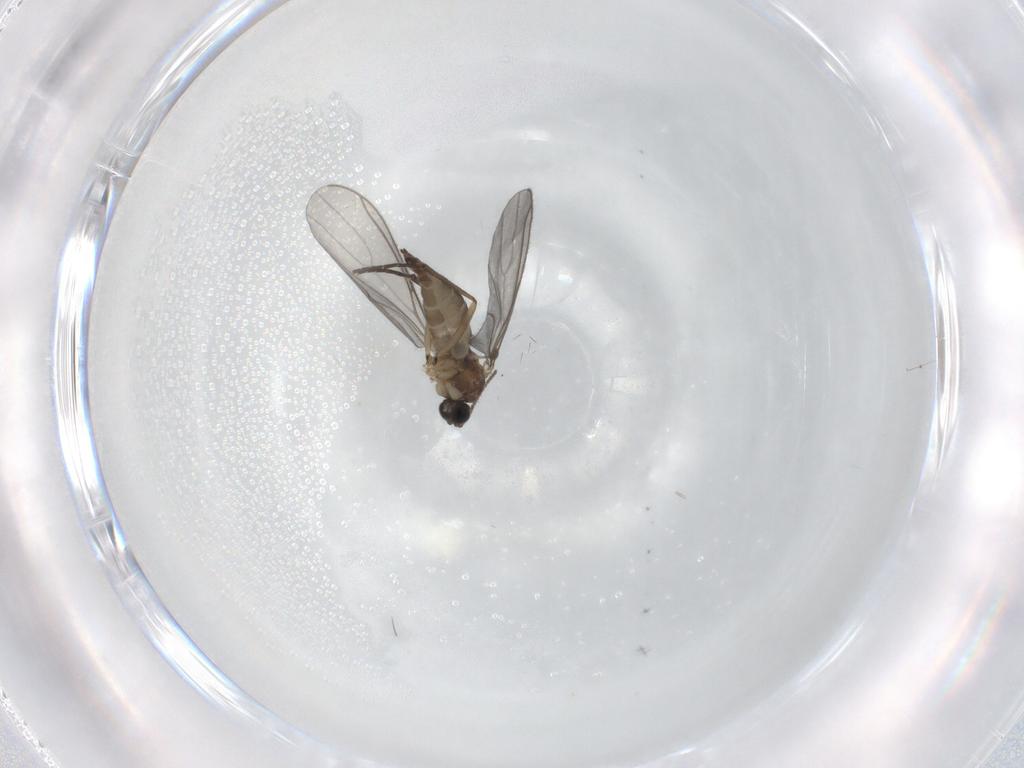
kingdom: Animalia
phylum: Arthropoda
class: Insecta
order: Diptera
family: Sciaridae
